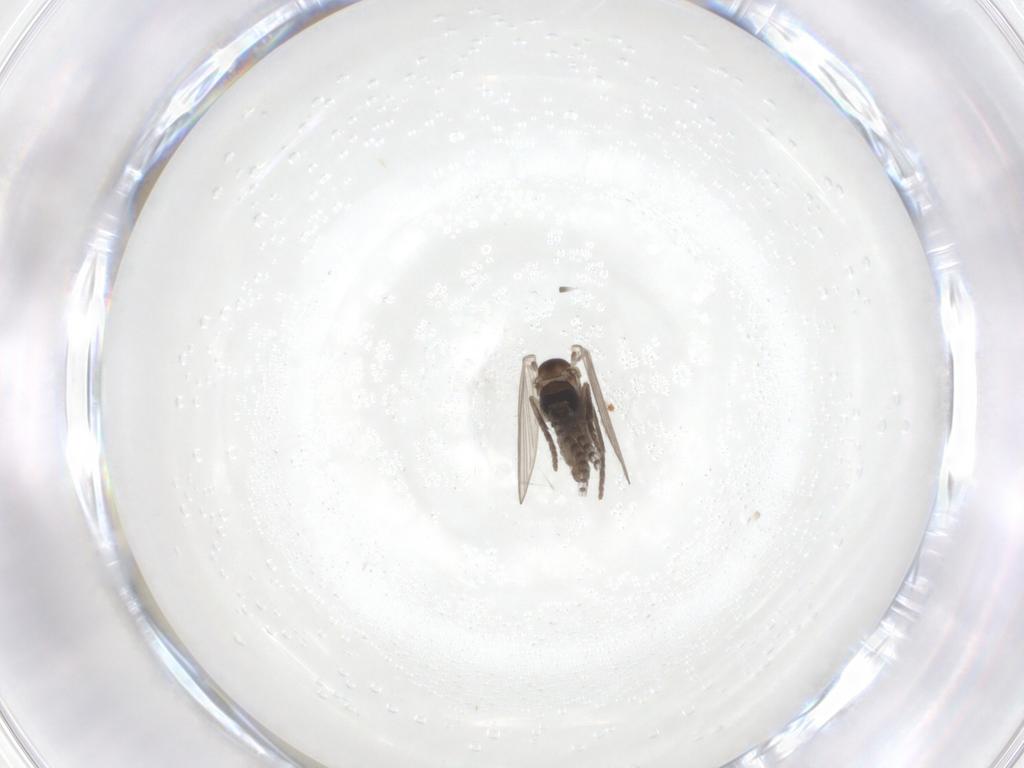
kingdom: Animalia
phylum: Arthropoda
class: Insecta
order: Diptera
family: Psychodidae
